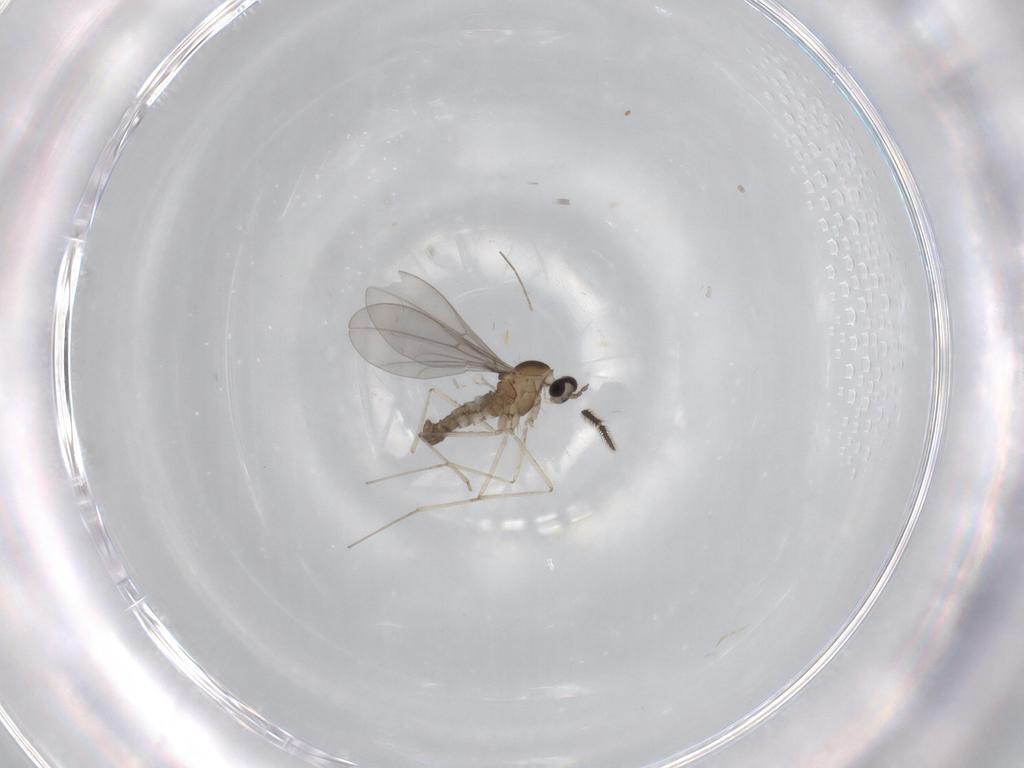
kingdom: Animalia
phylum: Arthropoda
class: Insecta
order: Diptera
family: Cecidomyiidae
